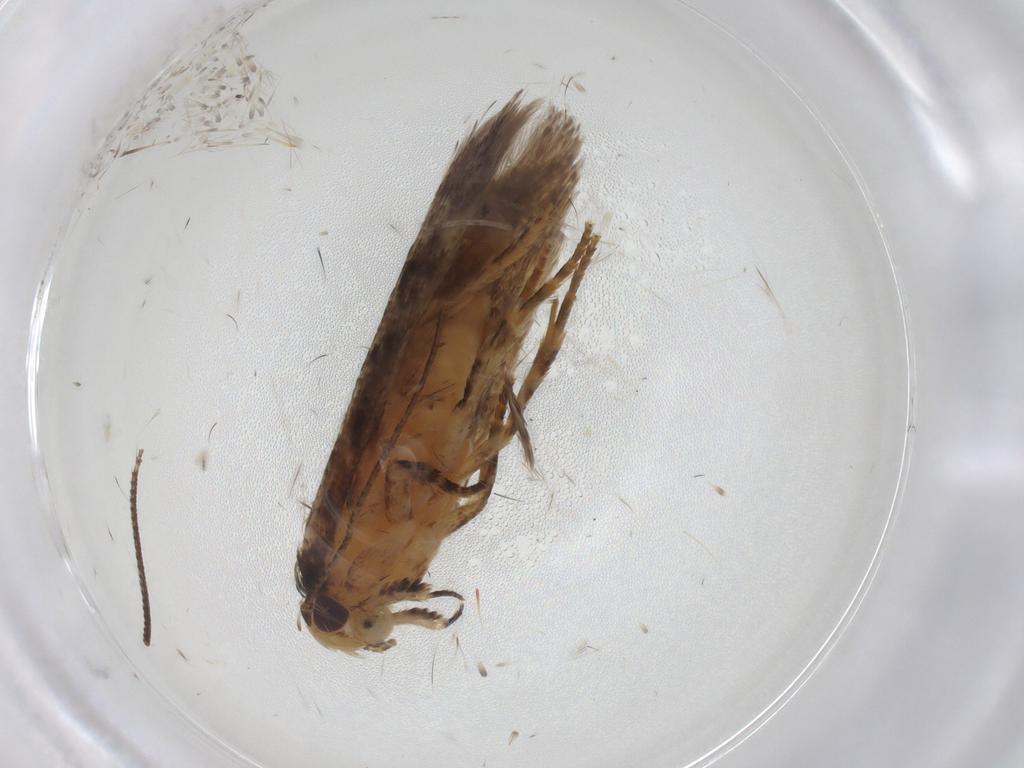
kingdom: Animalia
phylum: Arthropoda
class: Insecta
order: Lepidoptera
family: Gelechiidae
